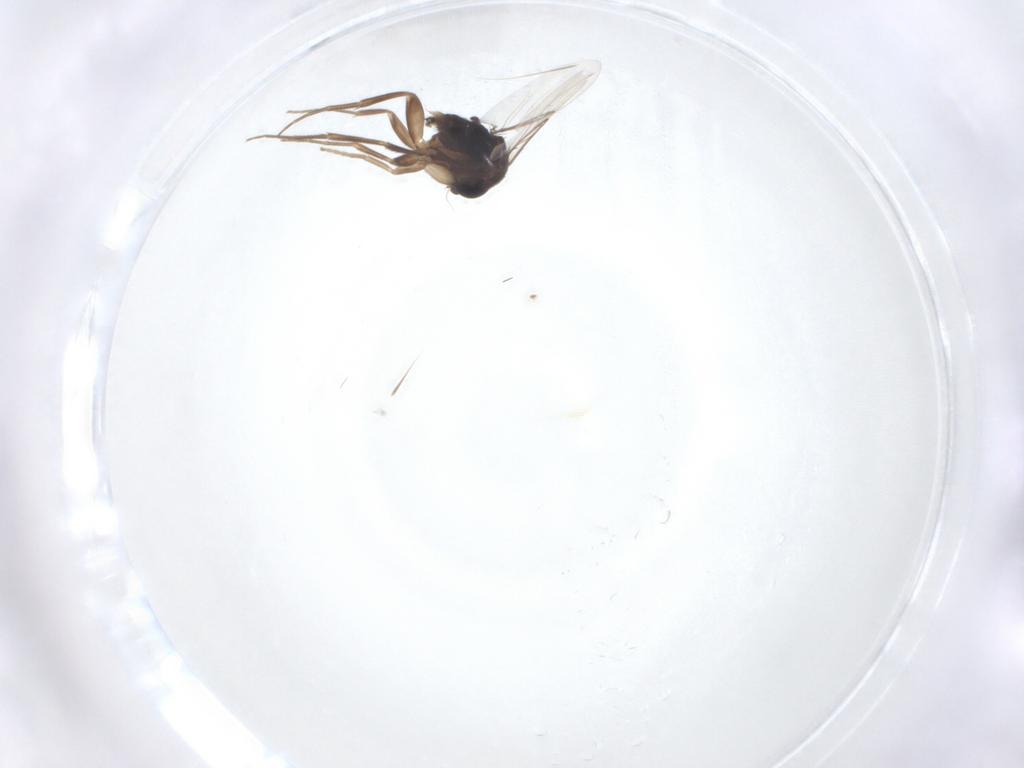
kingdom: Animalia
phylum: Arthropoda
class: Insecta
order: Diptera
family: Phoridae
